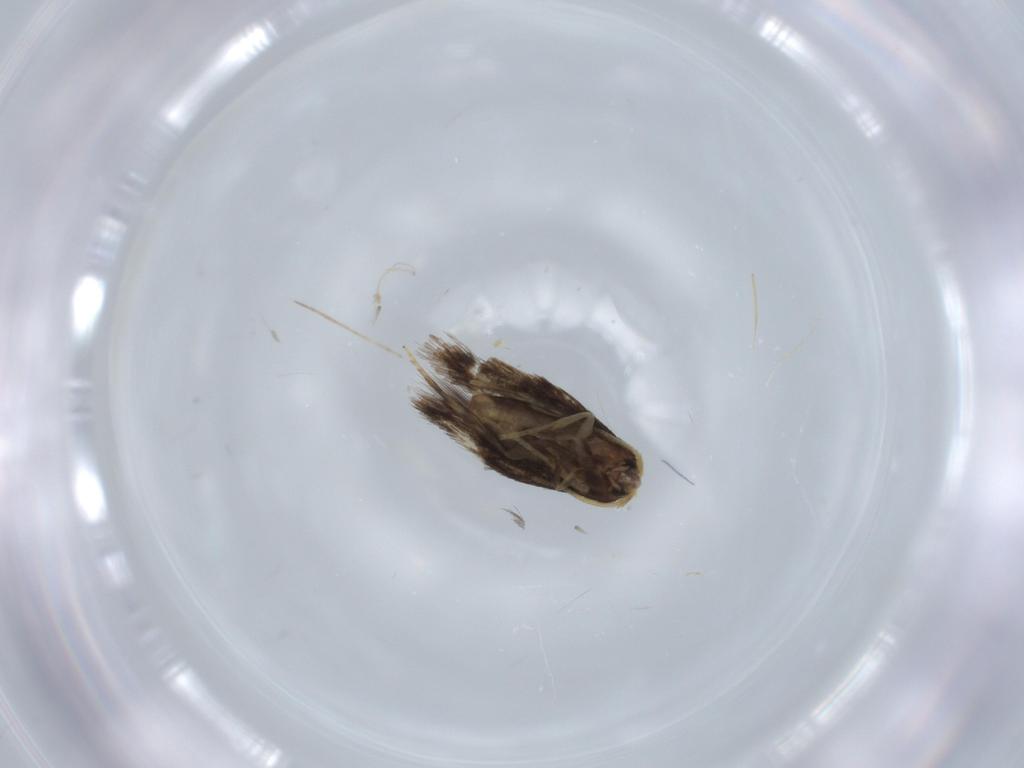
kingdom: Animalia
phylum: Arthropoda
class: Insecta
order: Lepidoptera
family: Nepticulidae
